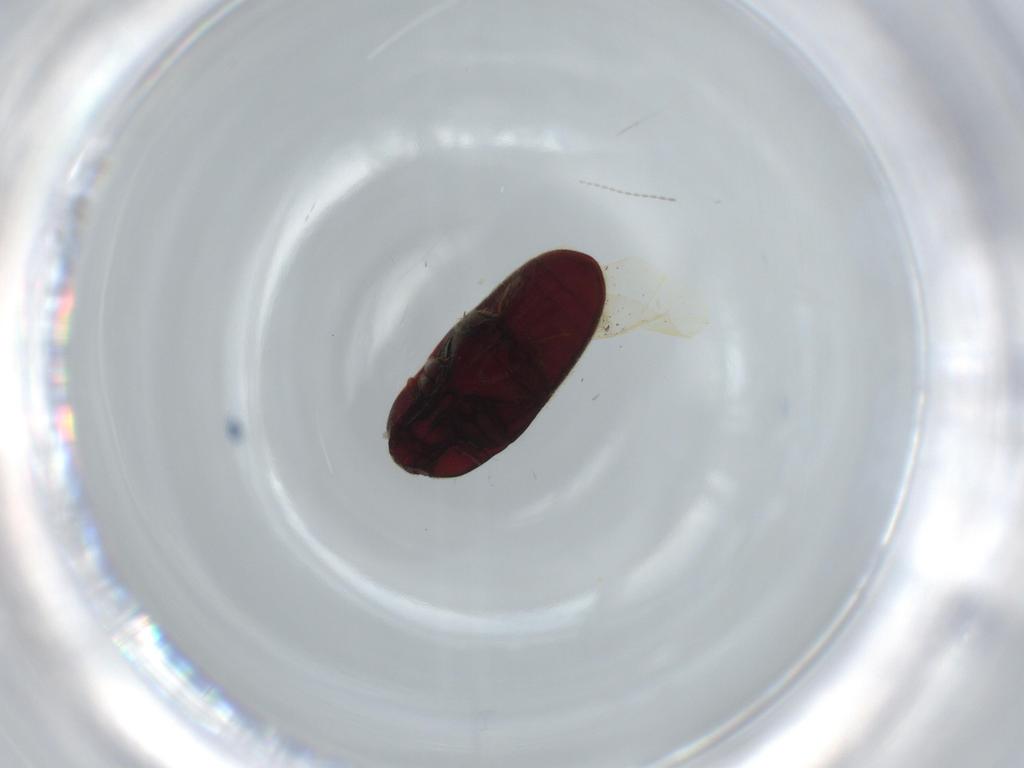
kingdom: Animalia
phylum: Arthropoda
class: Insecta
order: Coleoptera
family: Throscidae
